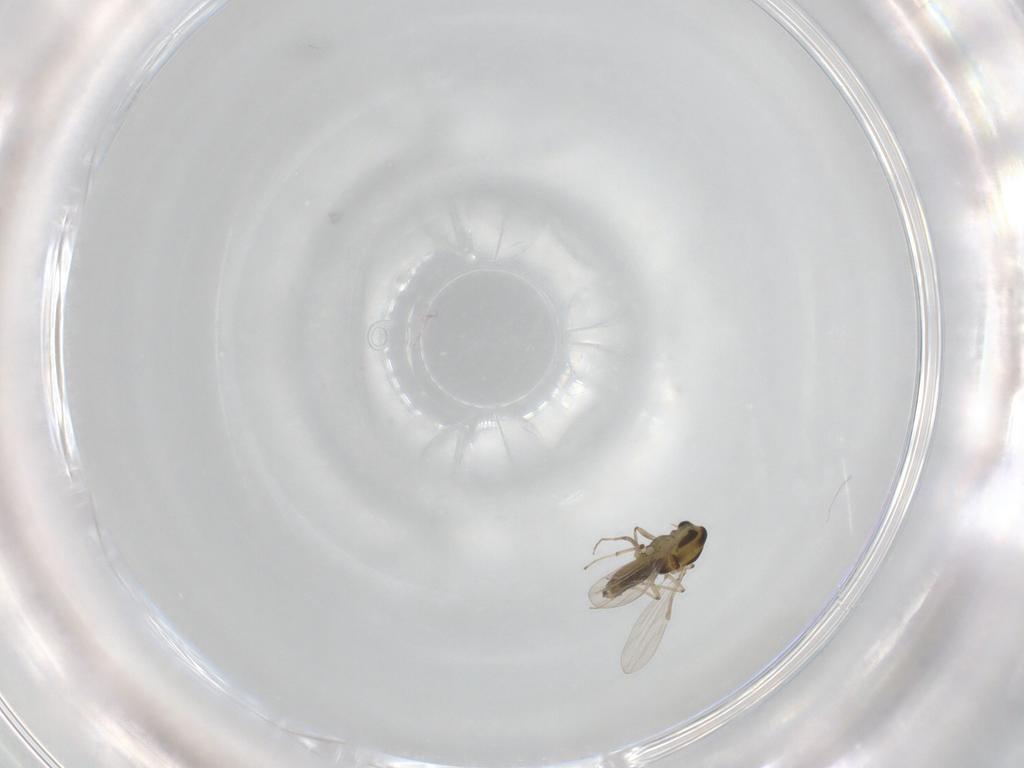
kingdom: Animalia
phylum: Arthropoda
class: Insecta
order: Diptera
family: Chironomidae
